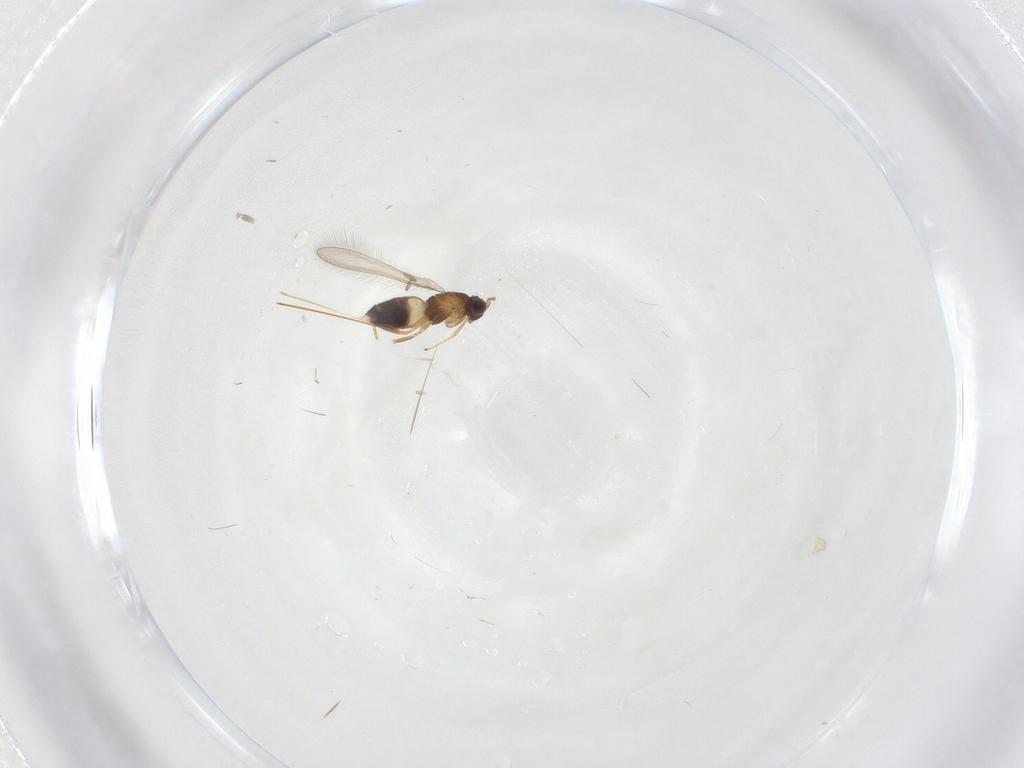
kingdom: Animalia
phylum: Arthropoda
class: Insecta
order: Hymenoptera
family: Mymaridae
